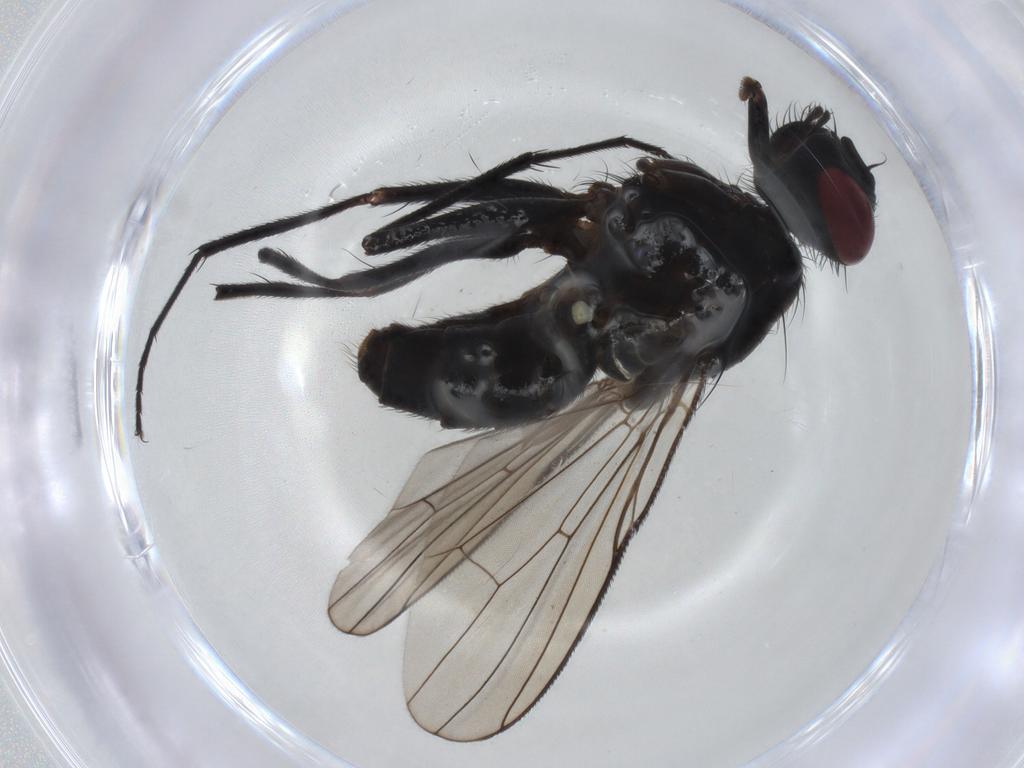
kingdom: Animalia
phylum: Arthropoda
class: Insecta
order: Diptera
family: Muscidae
